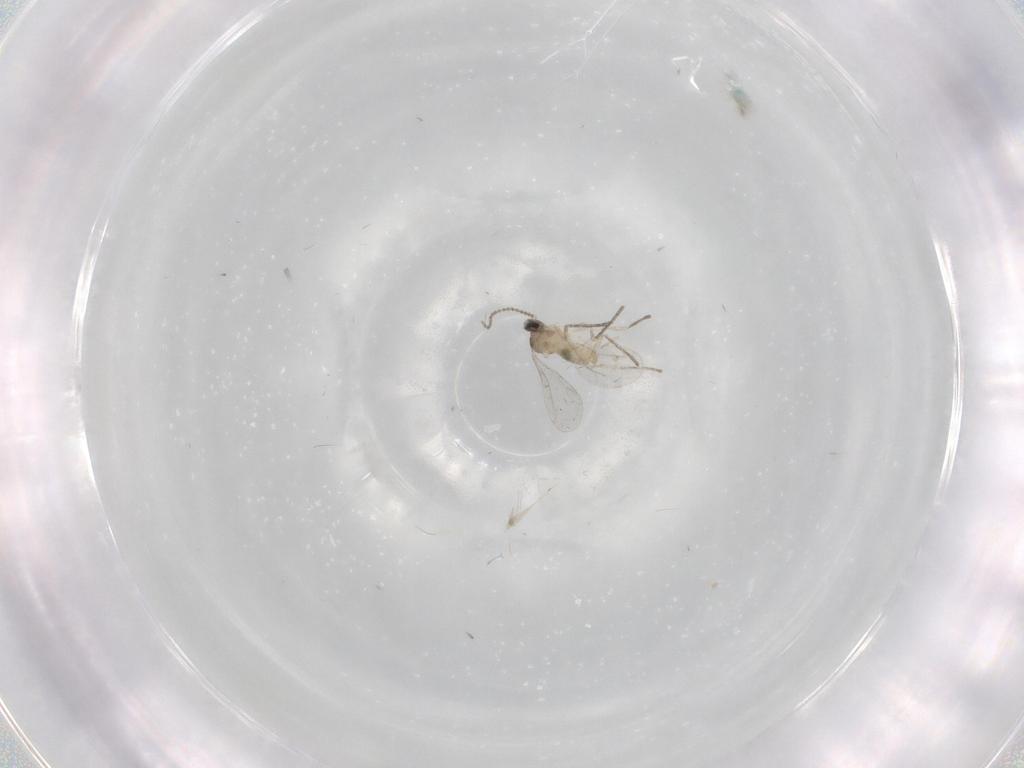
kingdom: Animalia
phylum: Arthropoda
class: Insecta
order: Diptera
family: Cecidomyiidae
